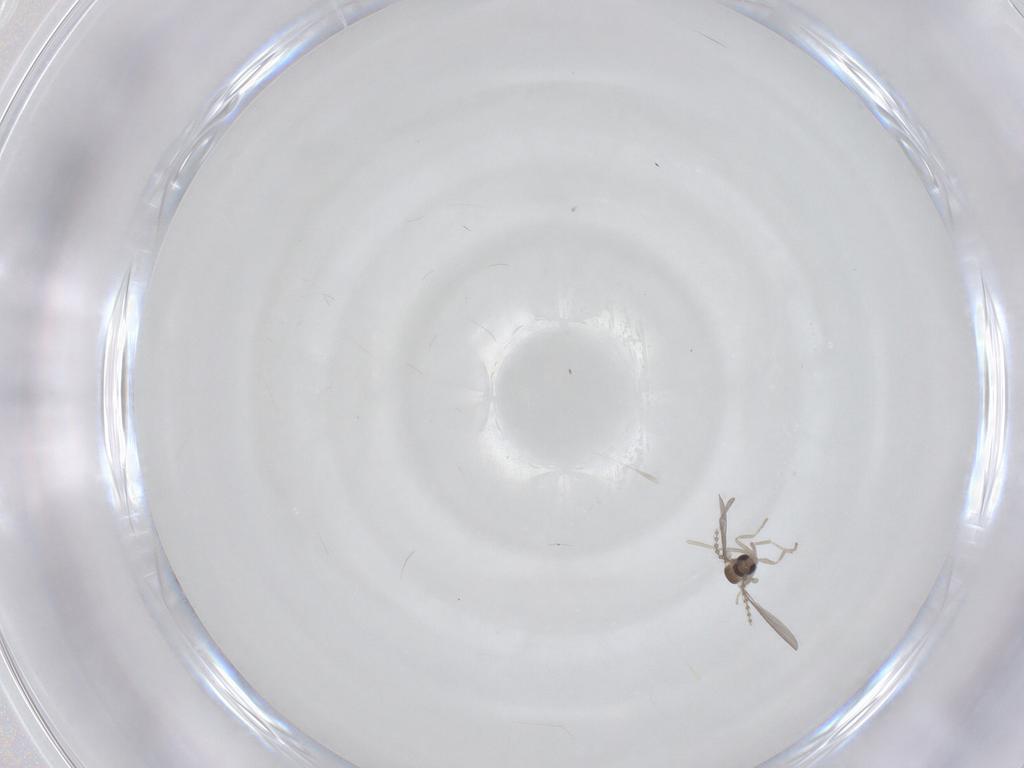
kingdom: Animalia
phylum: Arthropoda
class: Insecta
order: Diptera
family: Cecidomyiidae
